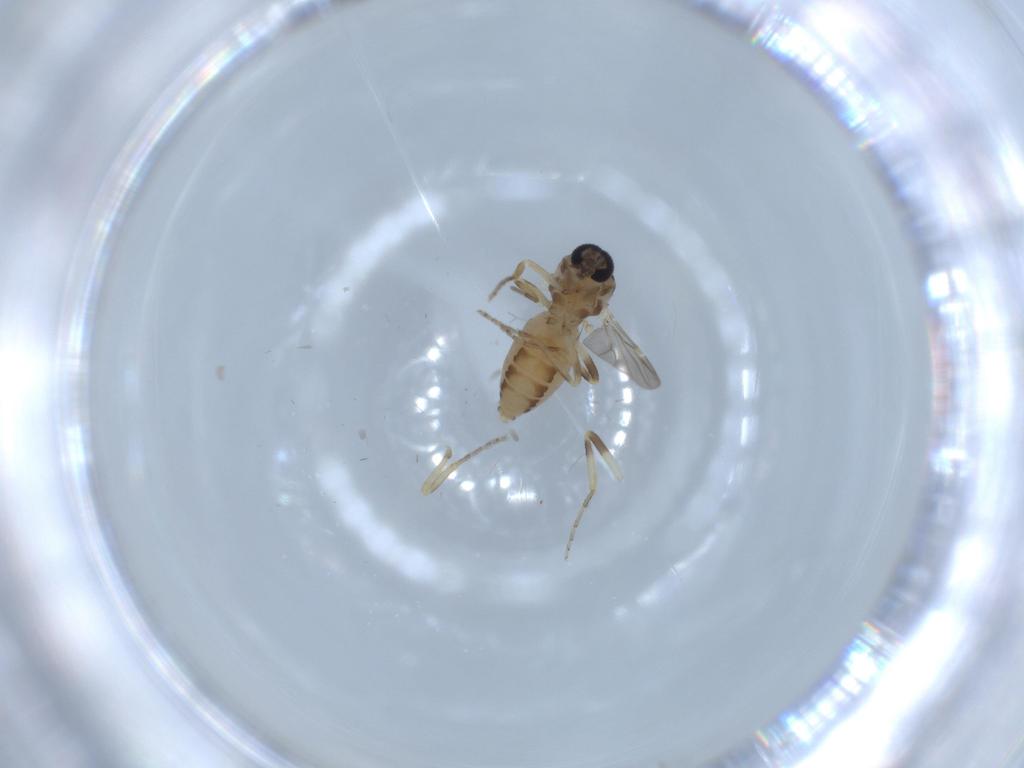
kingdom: Animalia
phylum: Arthropoda
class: Insecta
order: Diptera
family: Ceratopogonidae
